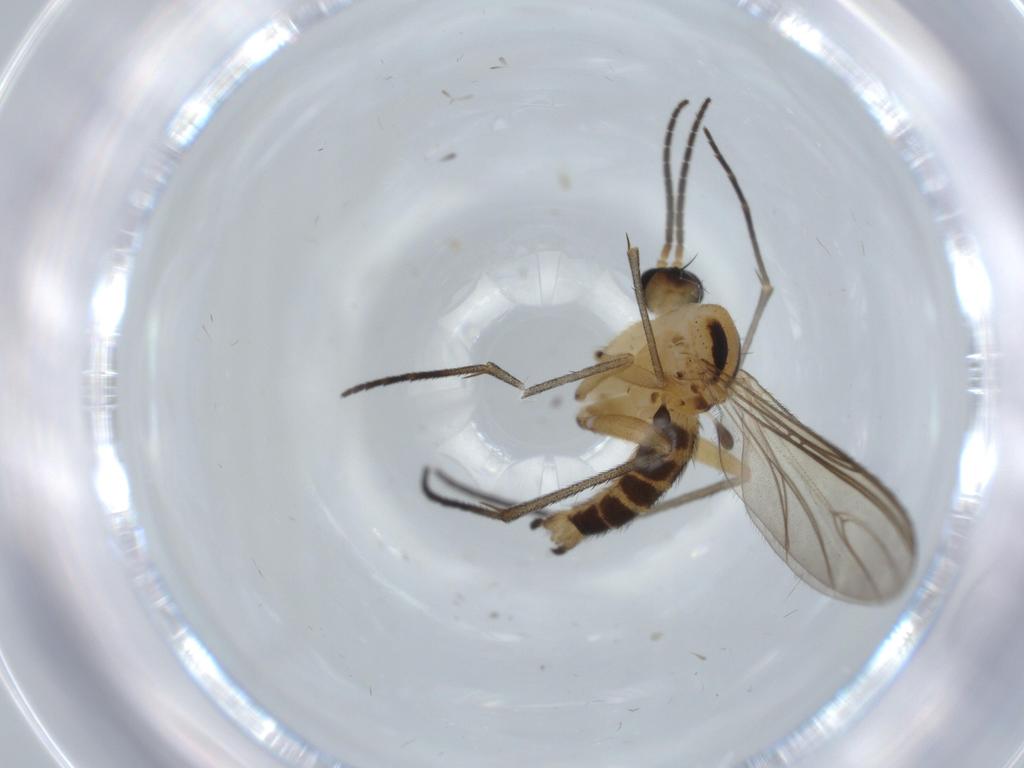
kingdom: Animalia
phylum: Arthropoda
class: Insecta
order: Diptera
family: Sciaridae
